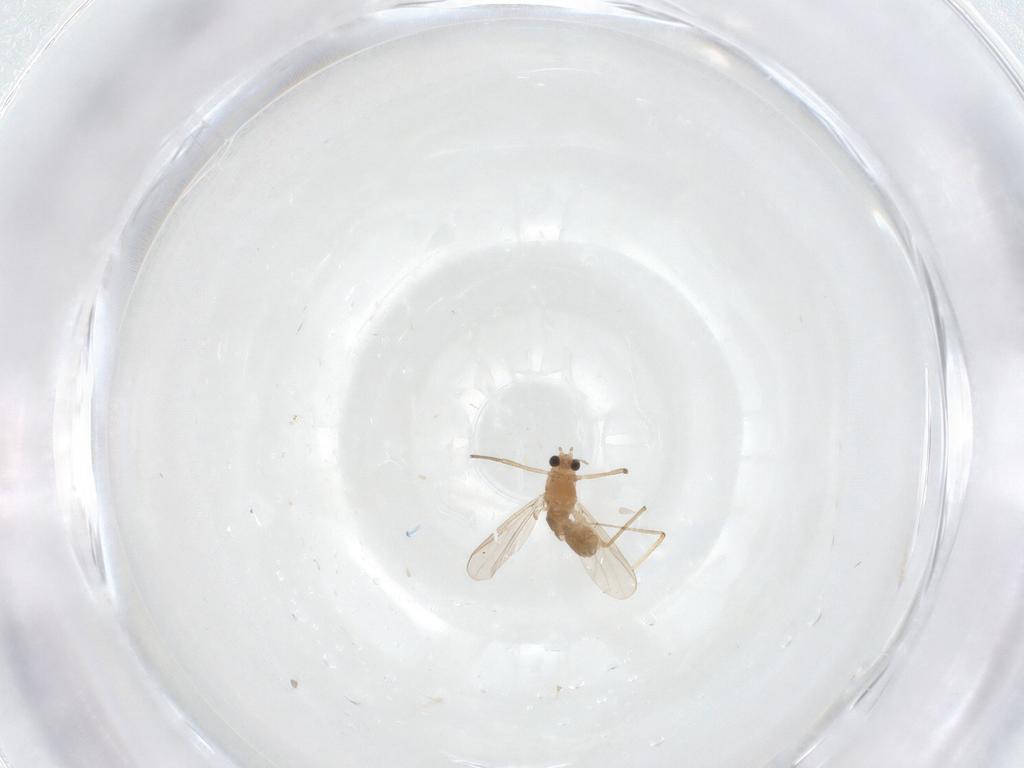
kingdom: Animalia
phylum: Arthropoda
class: Insecta
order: Diptera
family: Chironomidae
